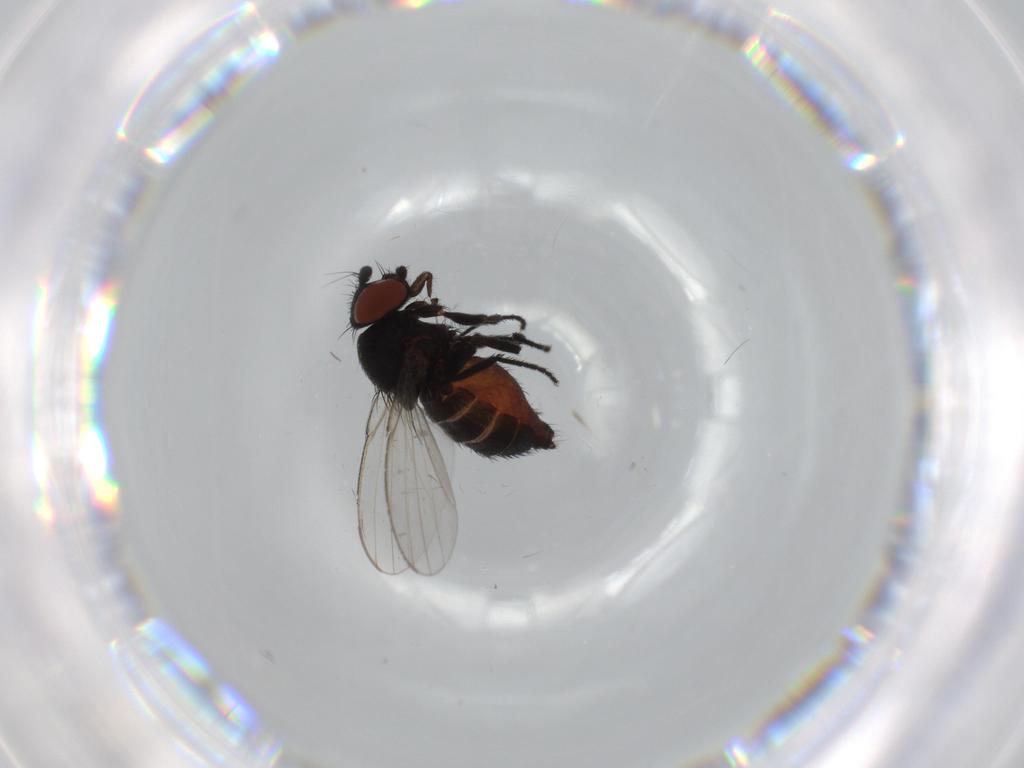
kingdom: Animalia
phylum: Arthropoda
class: Insecta
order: Diptera
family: Milichiidae
